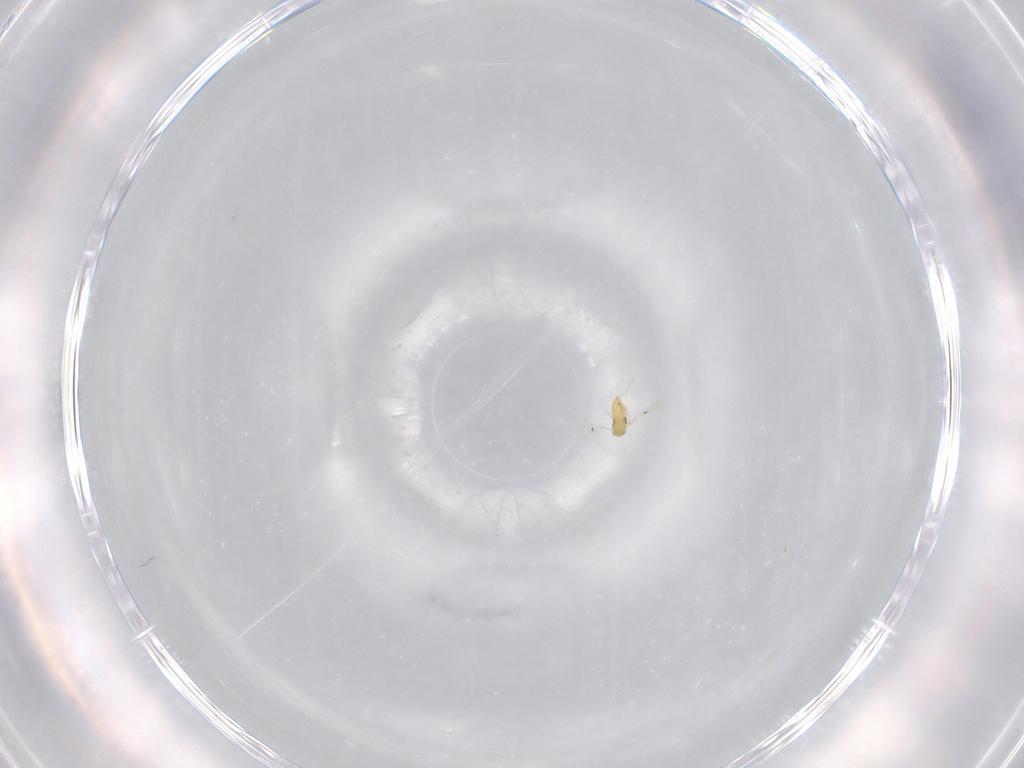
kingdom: Animalia
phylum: Arthropoda
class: Insecta
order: Hymenoptera
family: Trichogrammatidae
